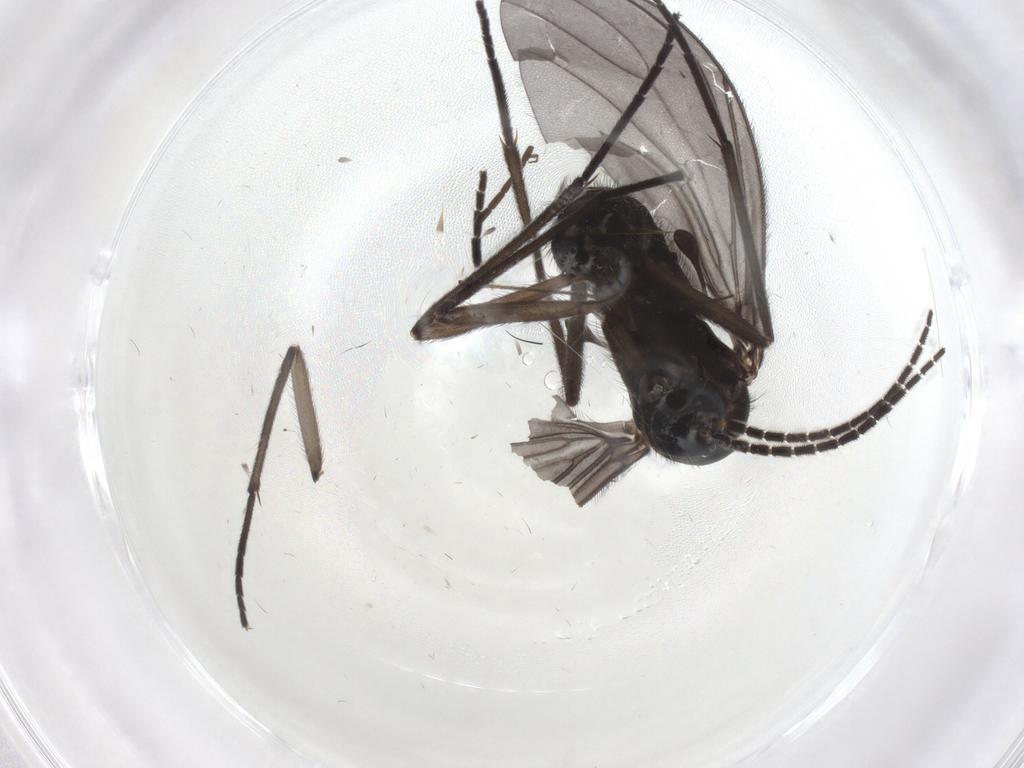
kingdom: Animalia
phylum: Arthropoda
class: Insecta
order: Diptera
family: Sciaridae
